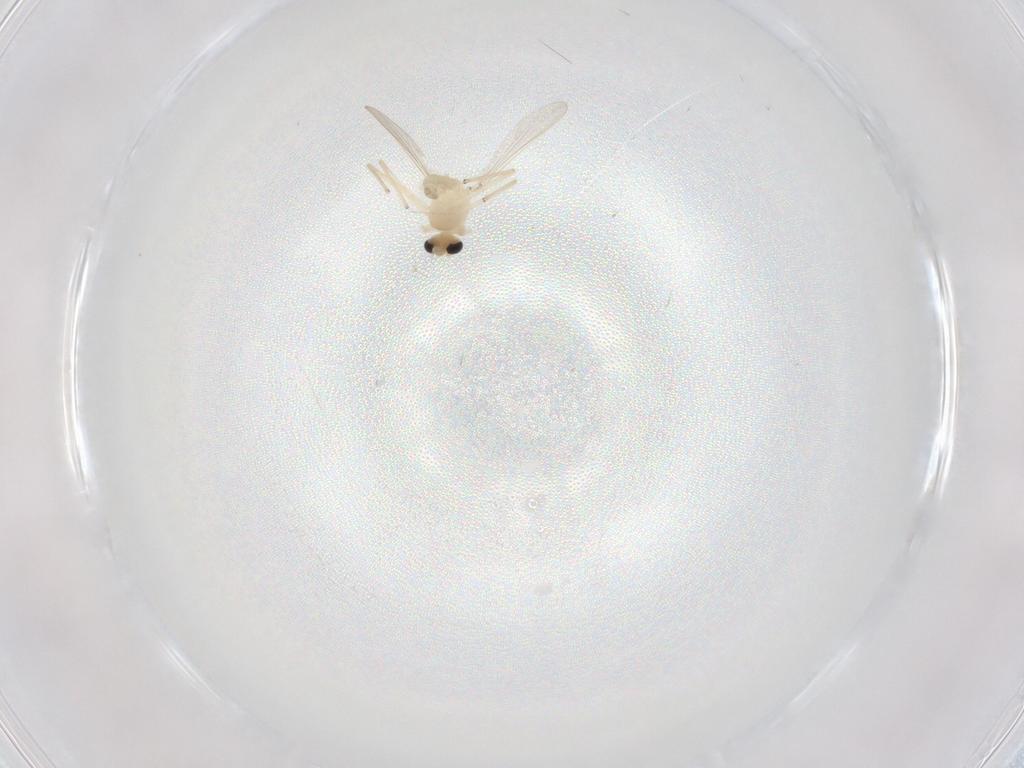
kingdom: Animalia
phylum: Arthropoda
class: Insecta
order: Diptera
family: Chironomidae
